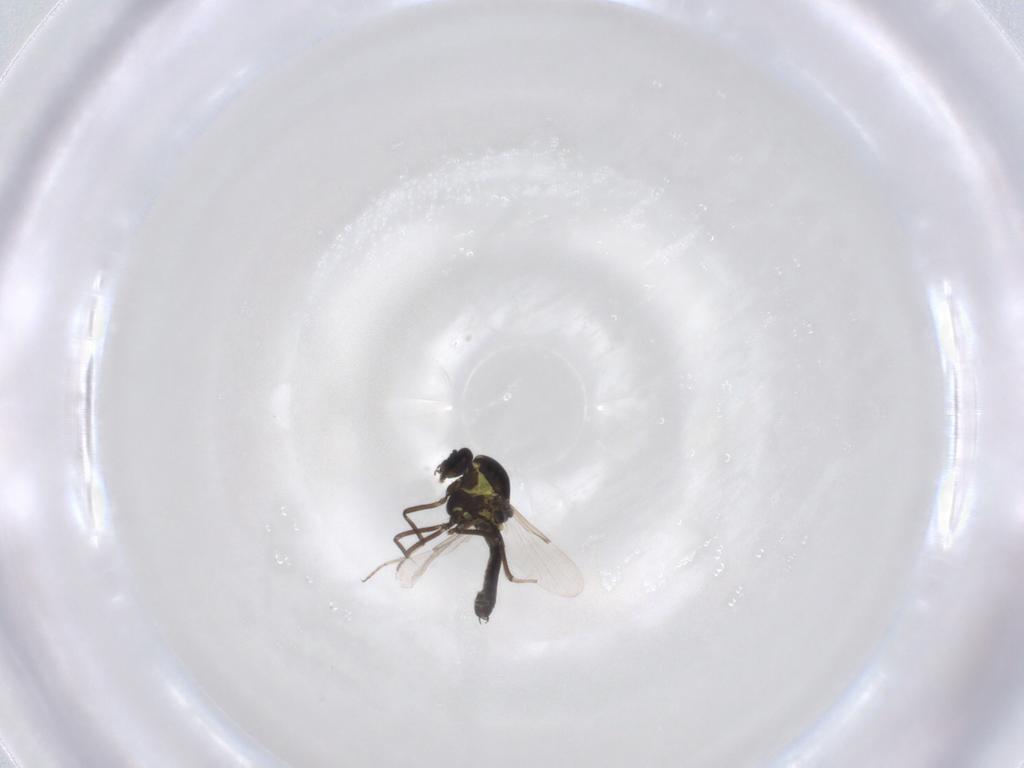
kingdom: Animalia
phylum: Arthropoda
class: Insecta
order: Diptera
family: Ceratopogonidae
